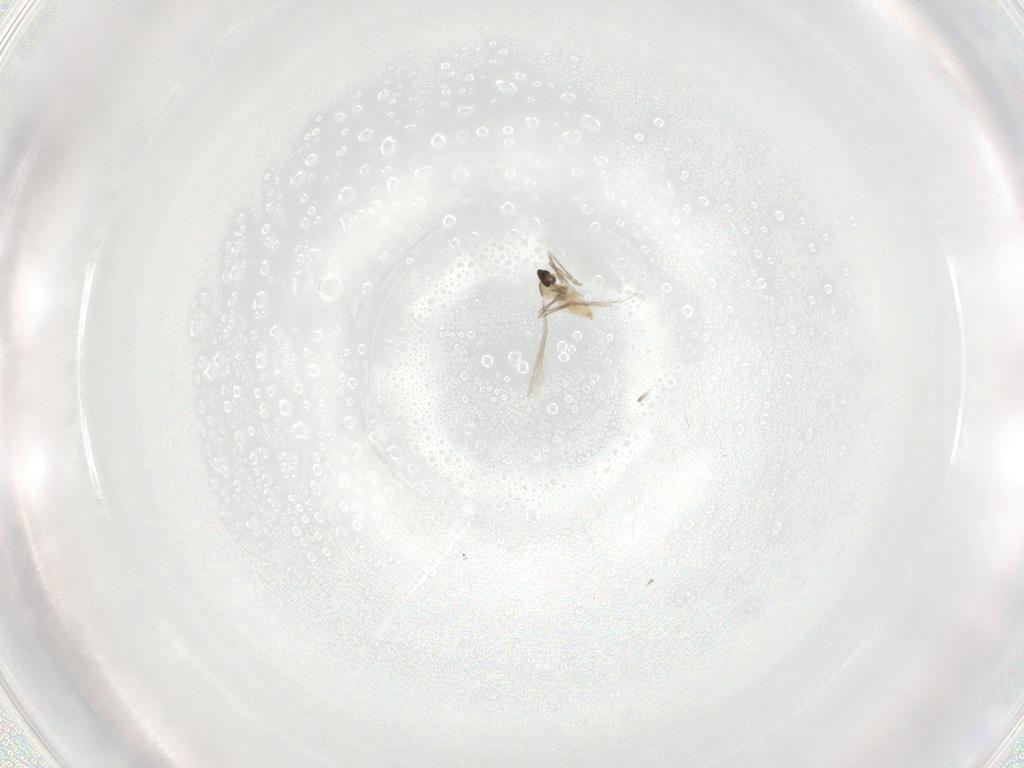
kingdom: Animalia
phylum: Arthropoda
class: Insecta
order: Diptera
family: Cecidomyiidae
